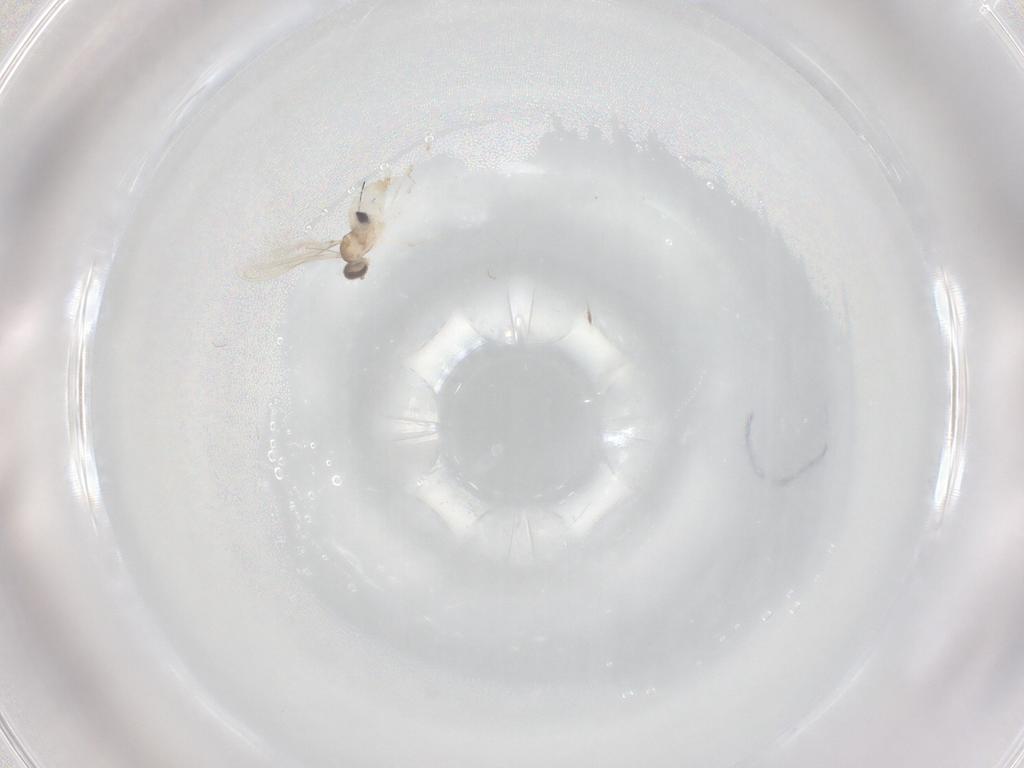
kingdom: Animalia
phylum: Arthropoda
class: Insecta
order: Diptera
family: Cecidomyiidae
